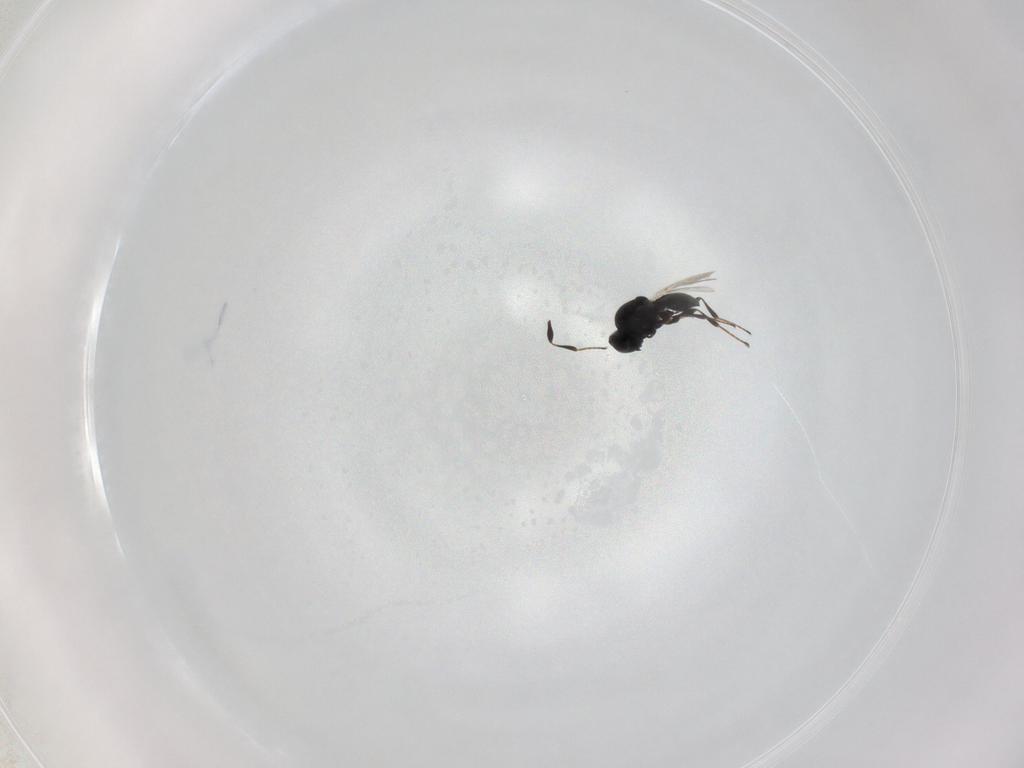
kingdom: Animalia
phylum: Arthropoda
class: Insecta
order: Hymenoptera
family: Platygastridae
